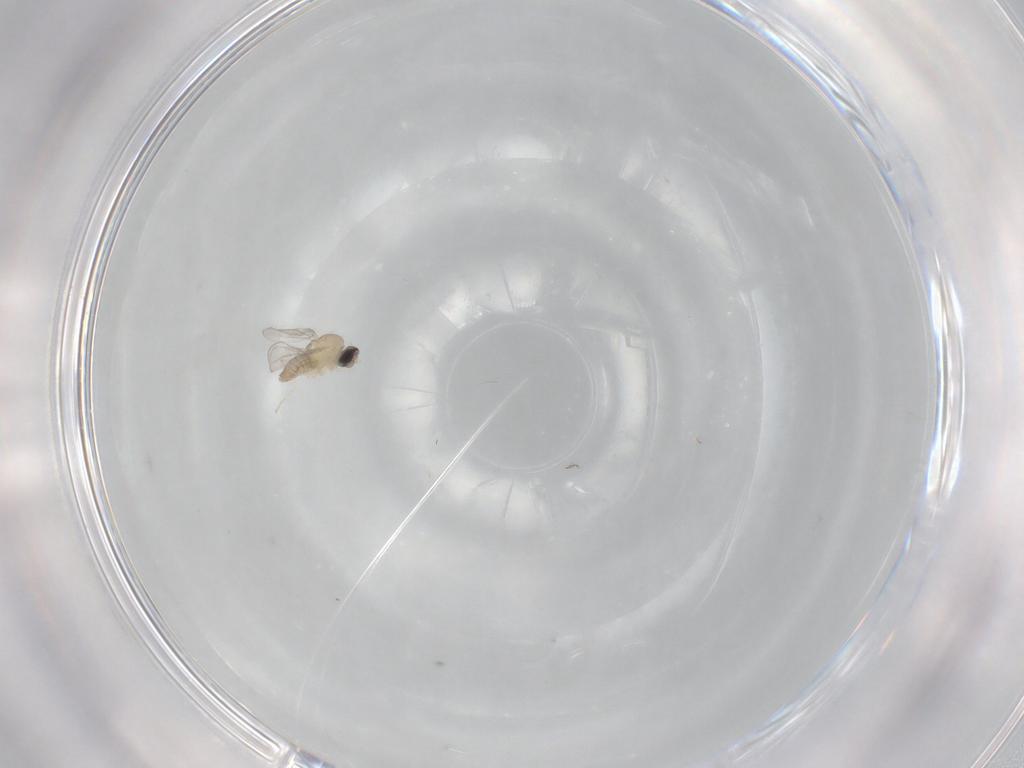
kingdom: Animalia
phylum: Arthropoda
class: Insecta
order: Diptera
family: Cecidomyiidae
